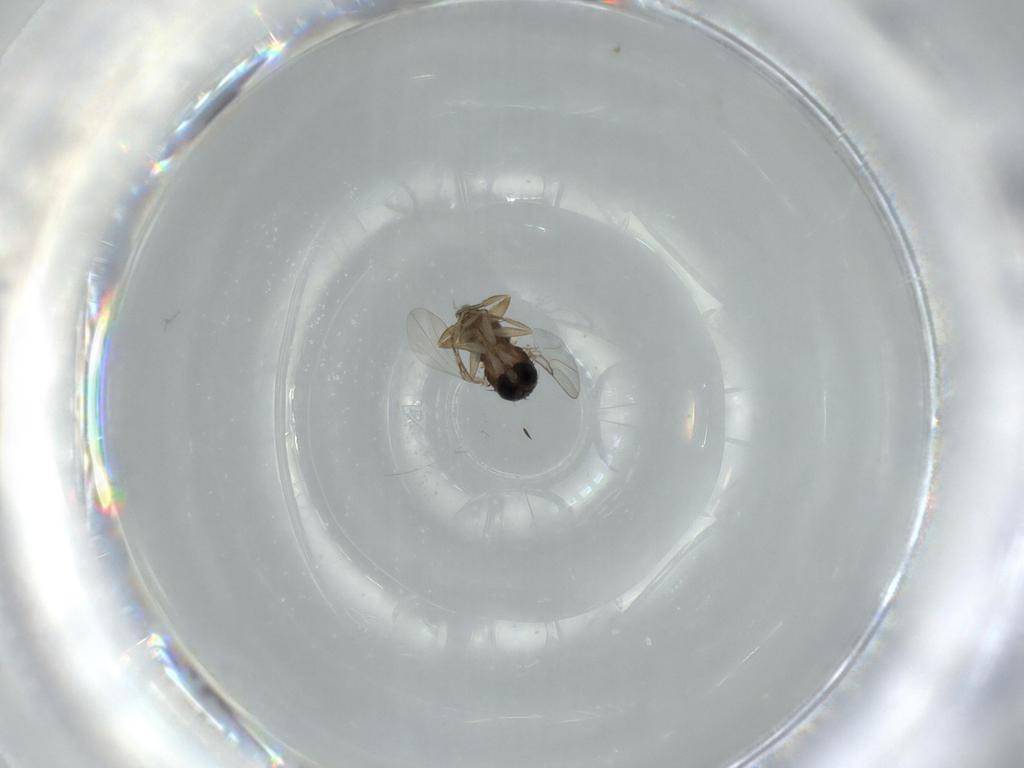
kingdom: Animalia
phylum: Arthropoda
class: Insecta
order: Diptera
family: Phoridae
